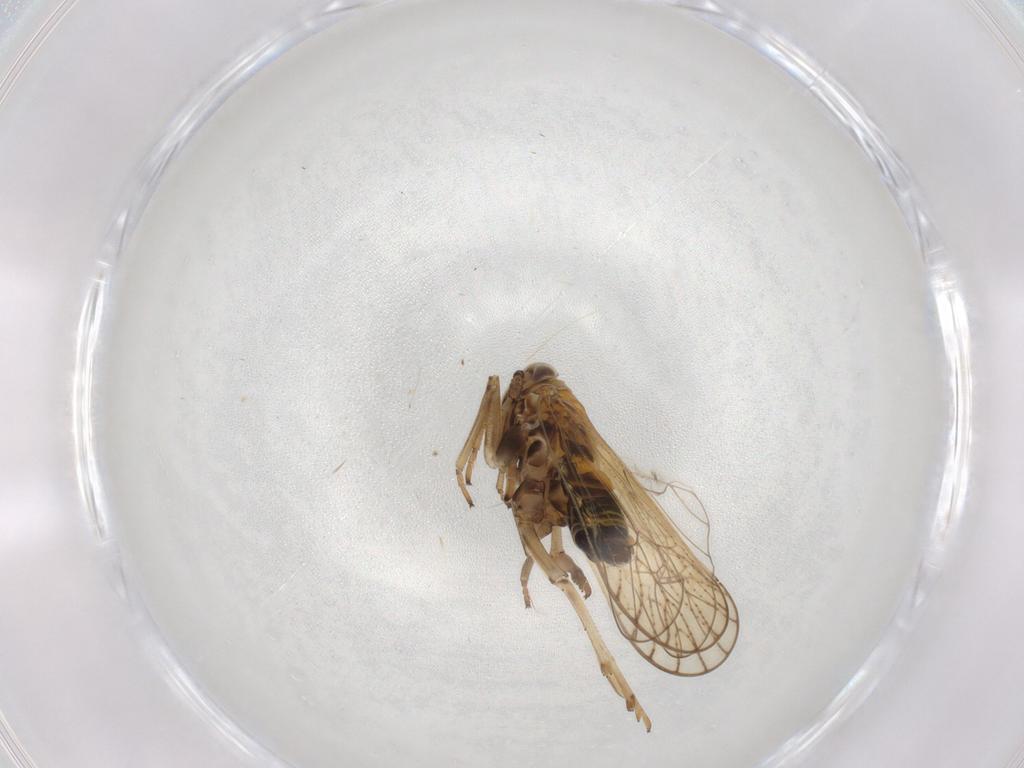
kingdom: Animalia
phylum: Arthropoda
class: Insecta
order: Hemiptera
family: Delphacidae
